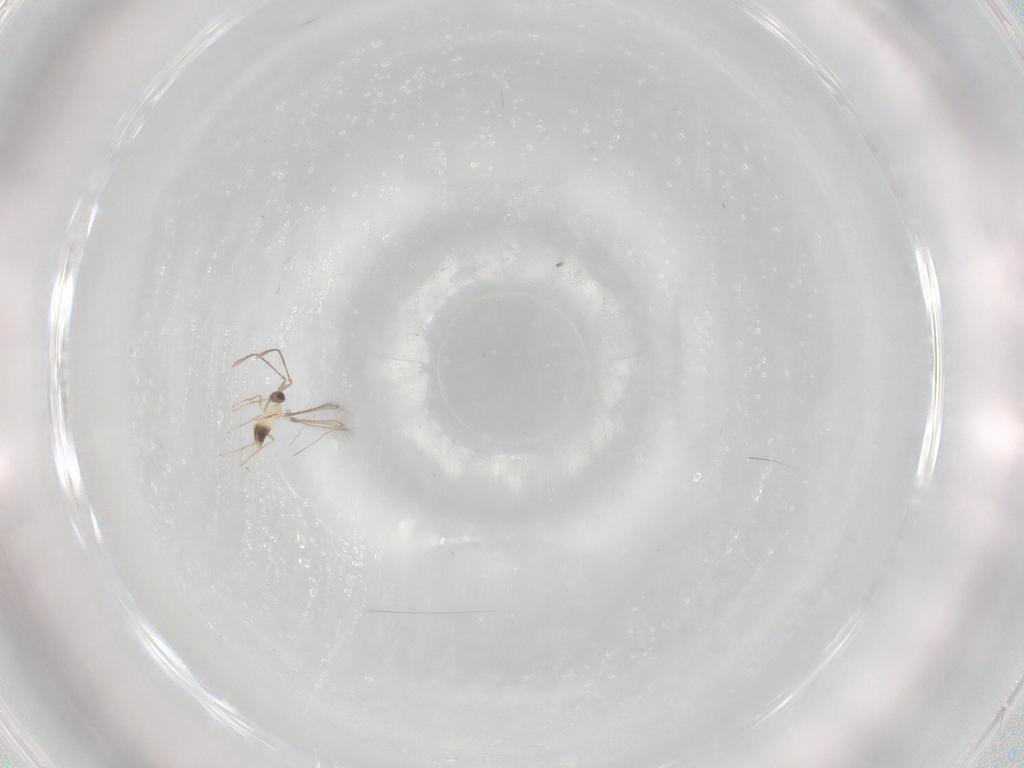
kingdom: Animalia
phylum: Arthropoda
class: Insecta
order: Hymenoptera
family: Mymaridae
